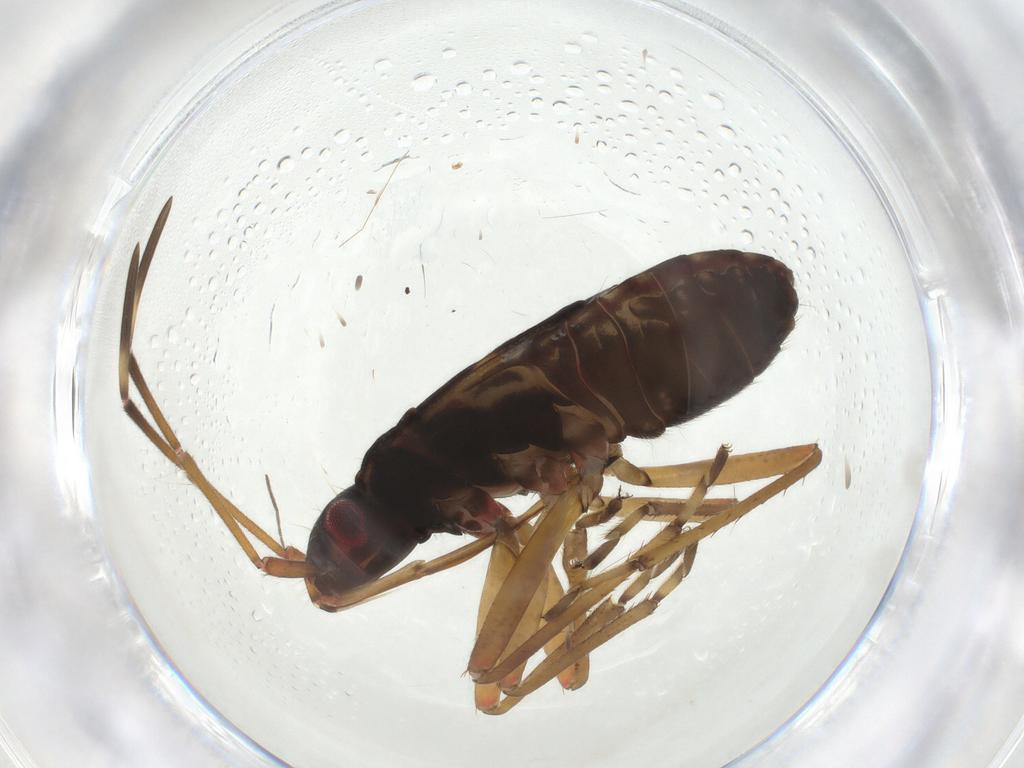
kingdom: Animalia
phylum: Arthropoda
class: Insecta
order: Hemiptera
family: Rhyparochromidae
